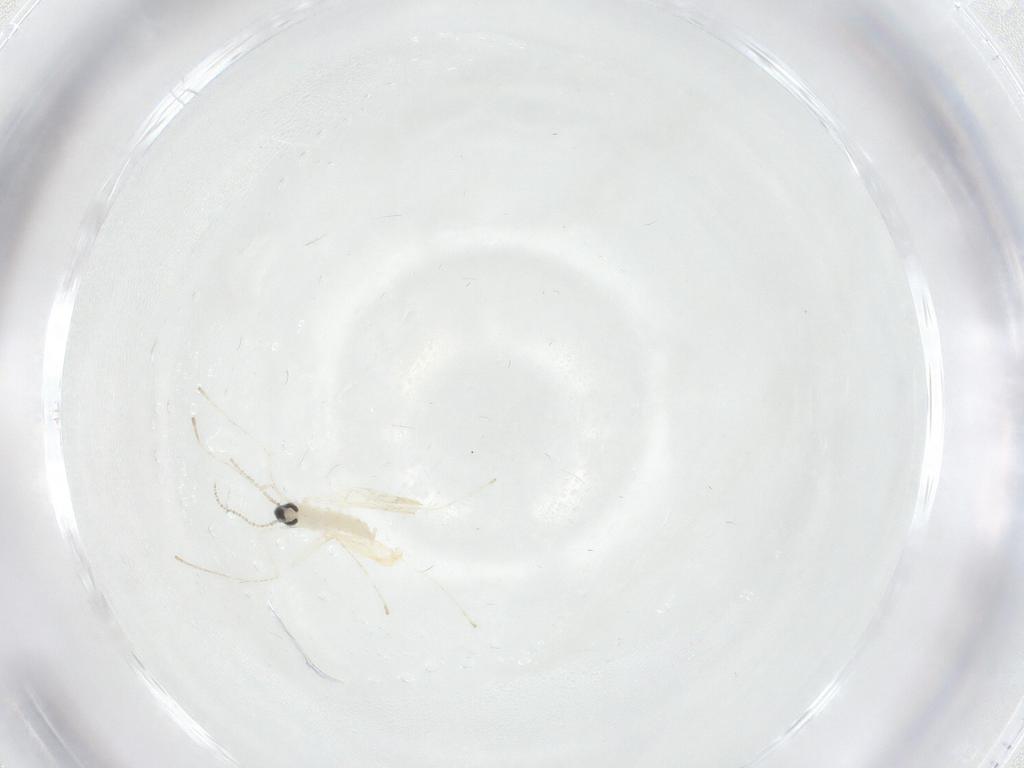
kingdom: Animalia
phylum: Arthropoda
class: Insecta
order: Diptera
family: Cecidomyiidae
